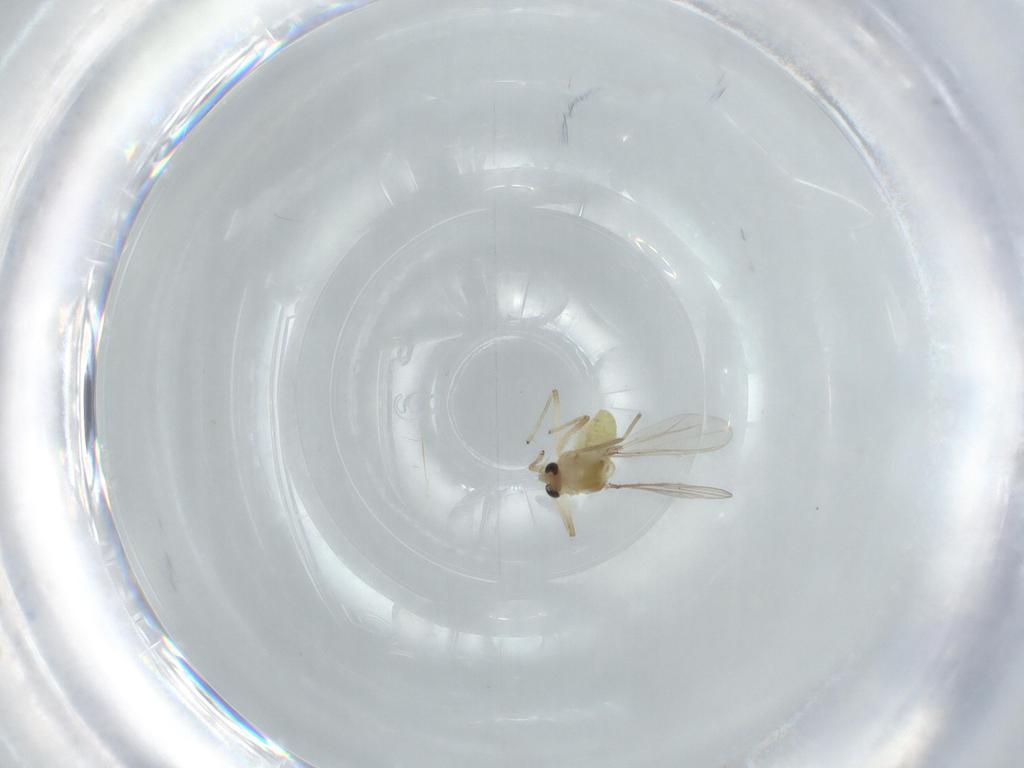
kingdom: Animalia
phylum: Arthropoda
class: Insecta
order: Diptera
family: Chironomidae
